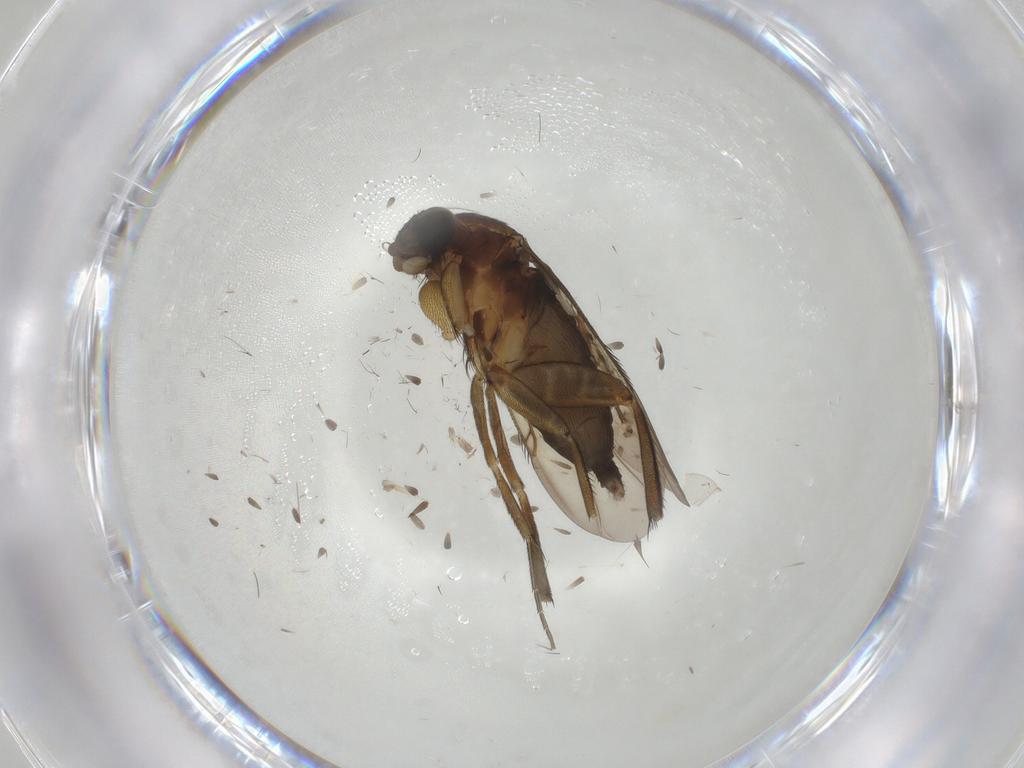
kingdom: Animalia
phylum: Arthropoda
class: Insecta
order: Diptera
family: Phoridae
